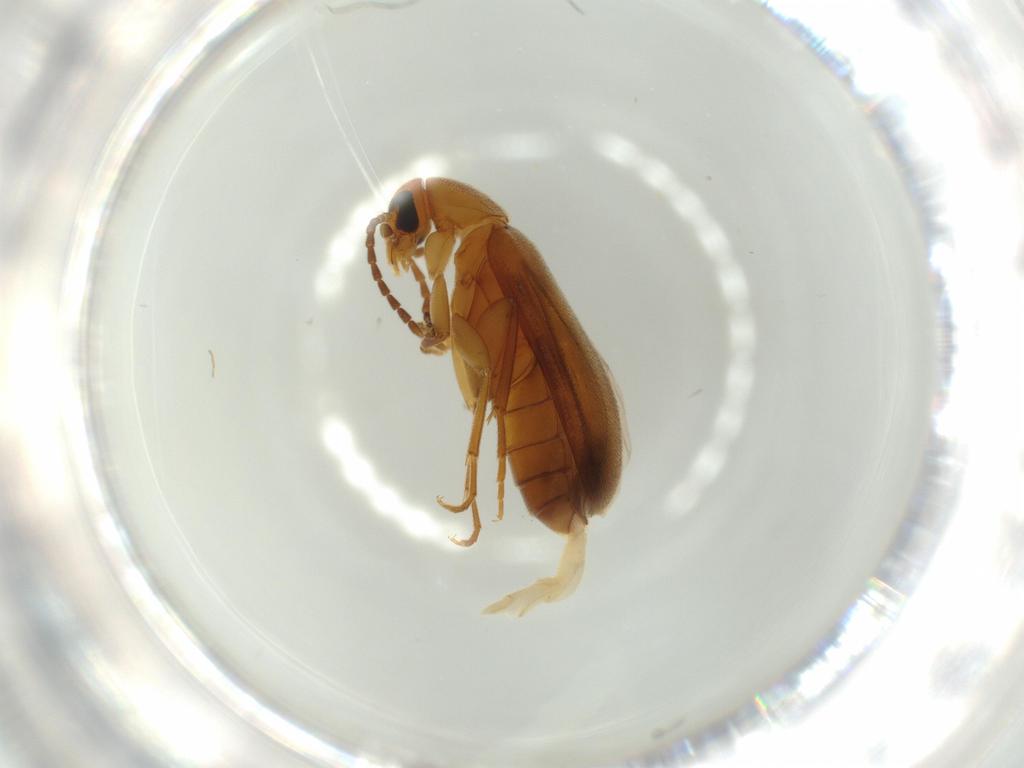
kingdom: Animalia
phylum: Arthropoda
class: Insecta
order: Coleoptera
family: Scraptiidae
